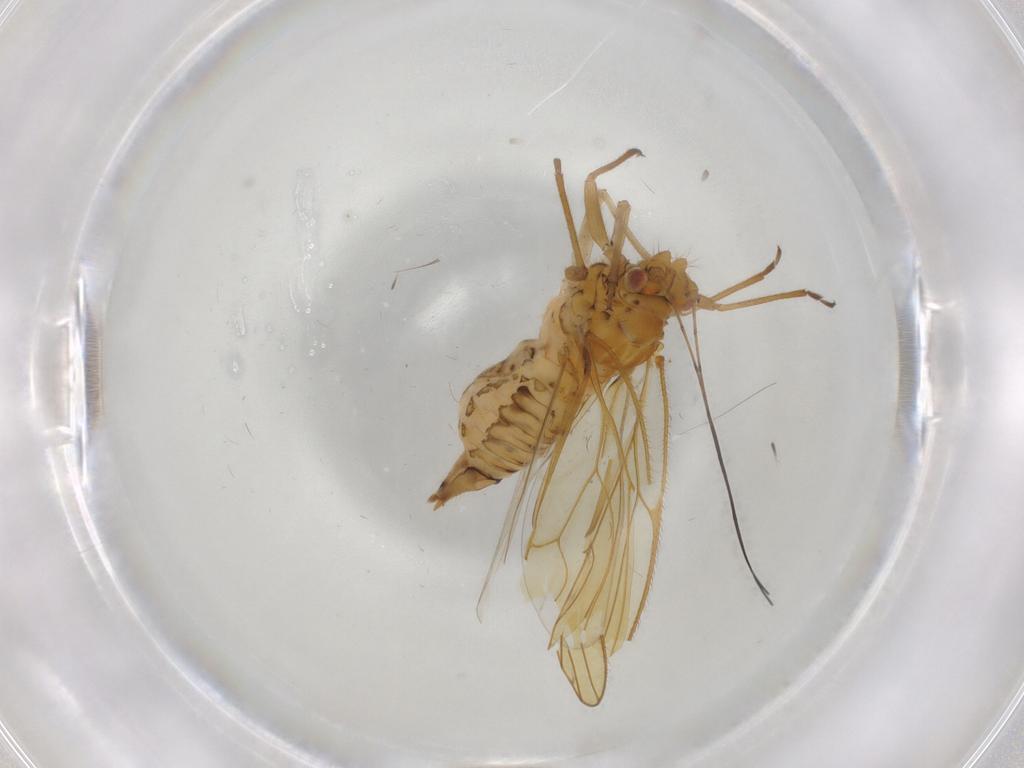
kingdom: Animalia
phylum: Arthropoda
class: Insecta
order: Hemiptera
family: Psyllidae
